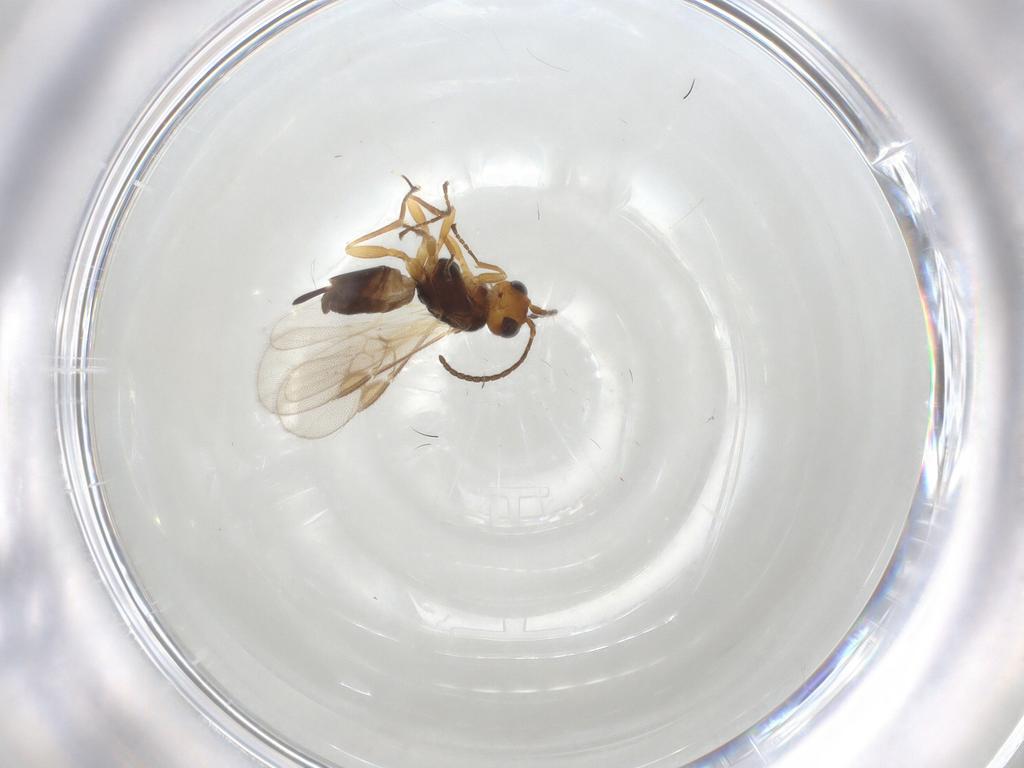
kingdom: Animalia
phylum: Arthropoda
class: Insecta
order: Hymenoptera
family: Braconidae
